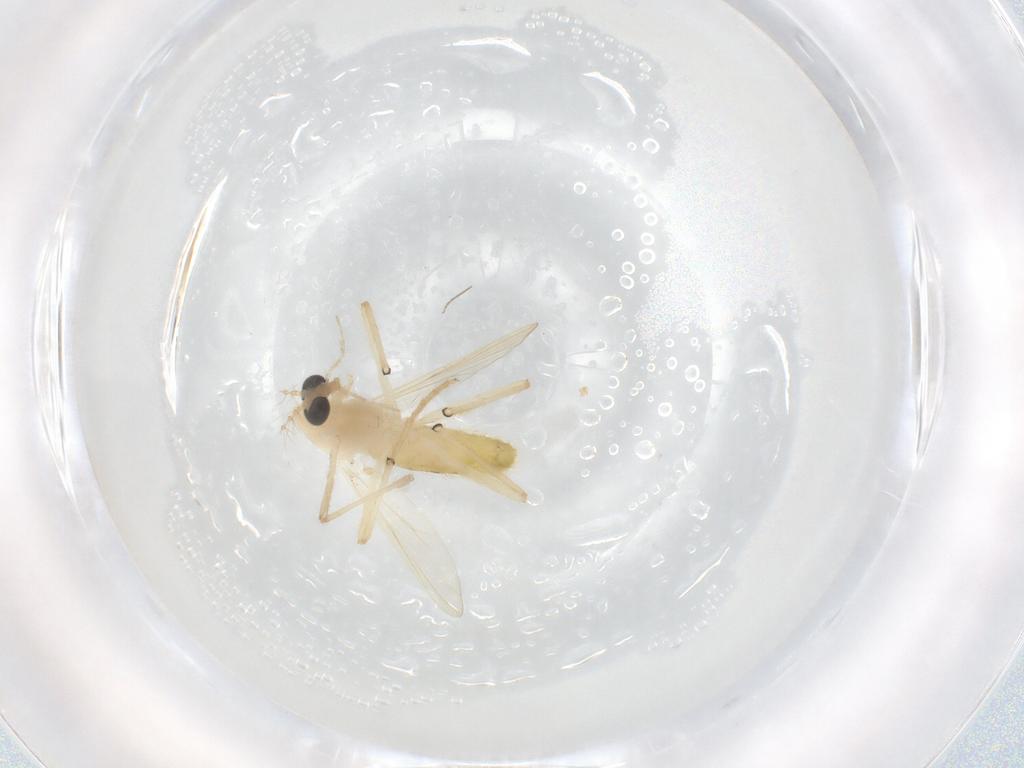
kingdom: Animalia
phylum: Arthropoda
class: Insecta
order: Diptera
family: Chironomidae
